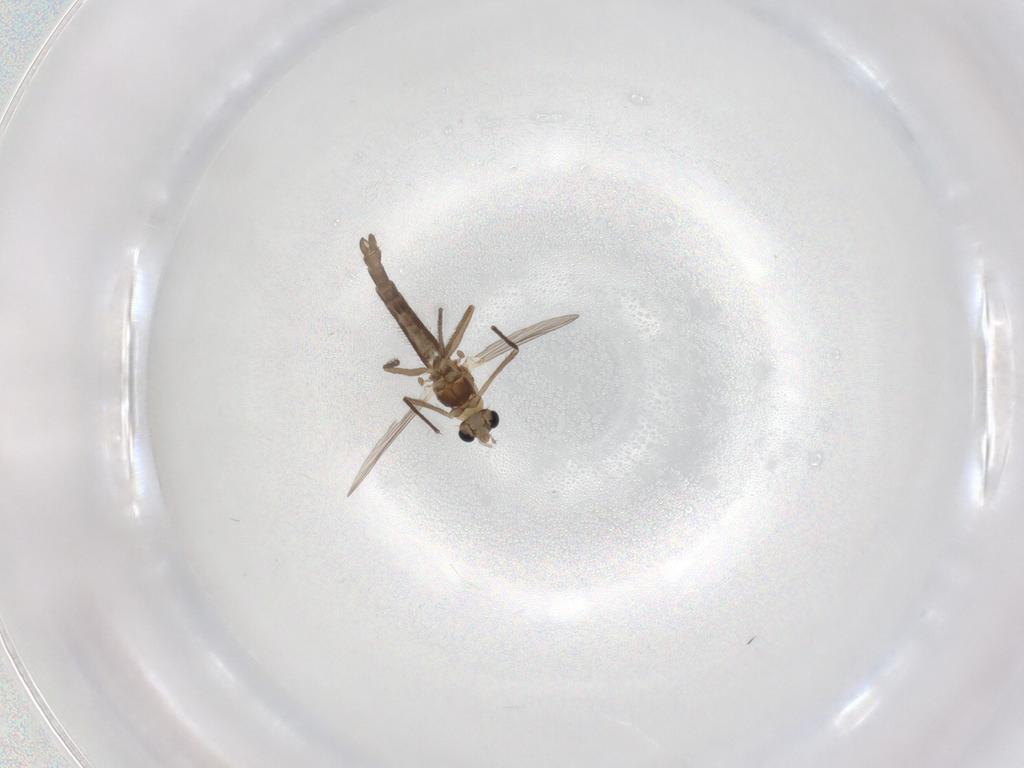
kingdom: Animalia
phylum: Arthropoda
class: Insecta
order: Diptera
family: Chironomidae
